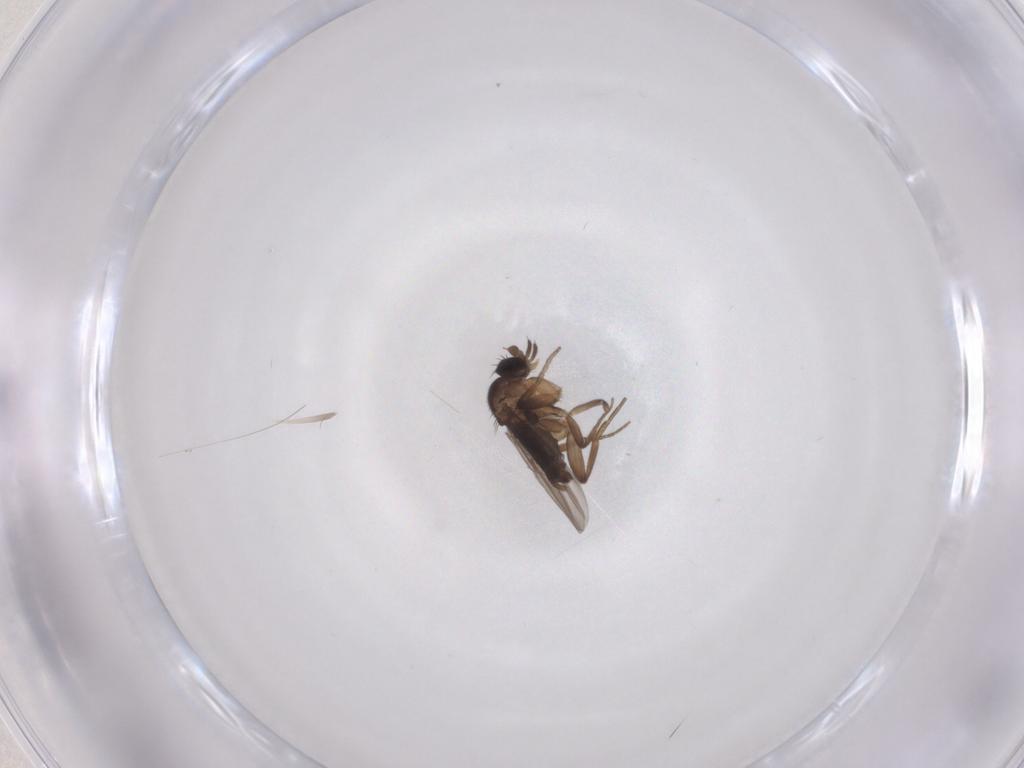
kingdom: Animalia
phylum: Arthropoda
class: Insecta
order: Diptera
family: Phoridae
